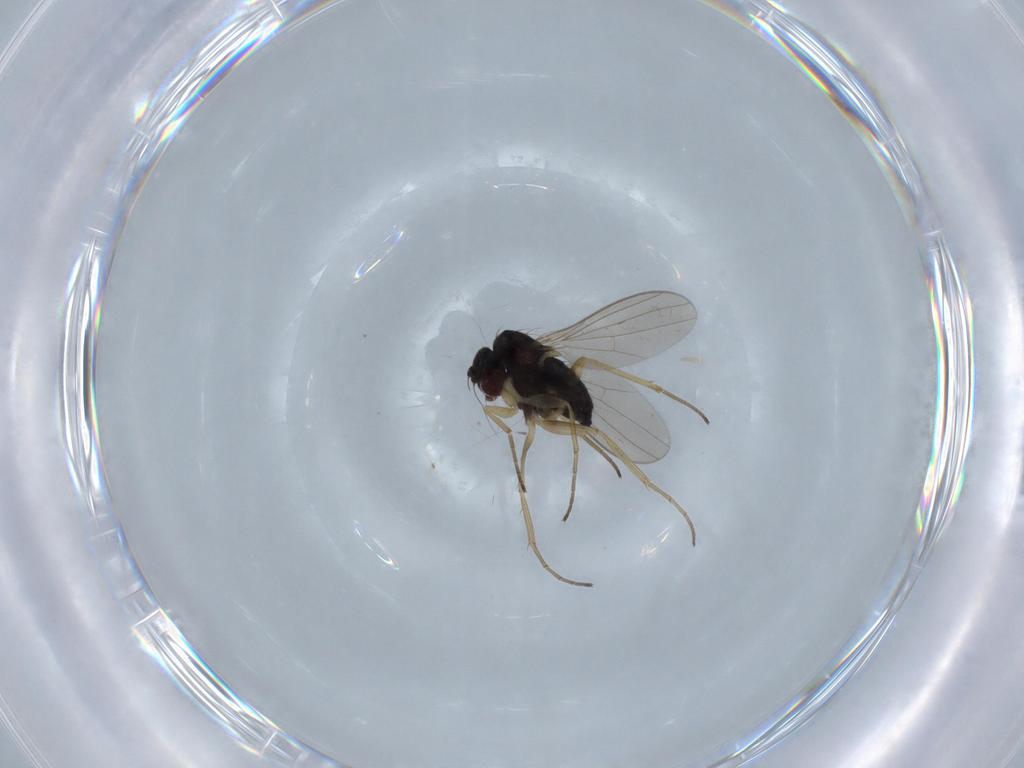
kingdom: Animalia
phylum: Arthropoda
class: Insecta
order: Diptera
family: Dolichopodidae
